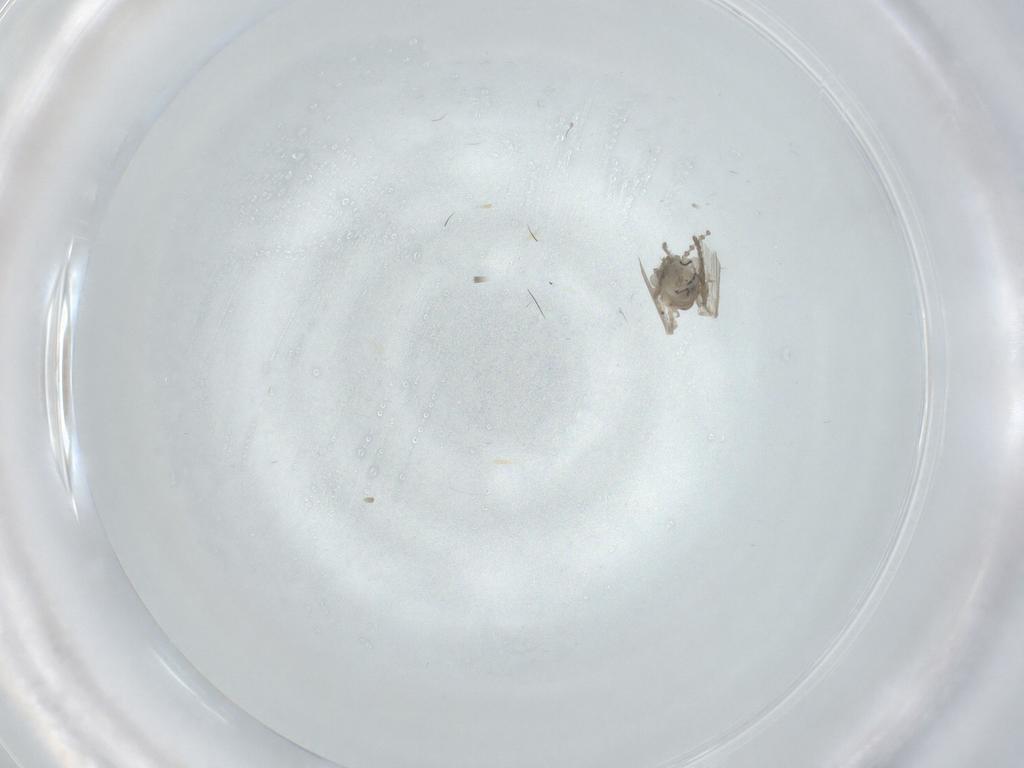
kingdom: Animalia
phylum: Arthropoda
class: Insecta
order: Diptera
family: Psychodidae
